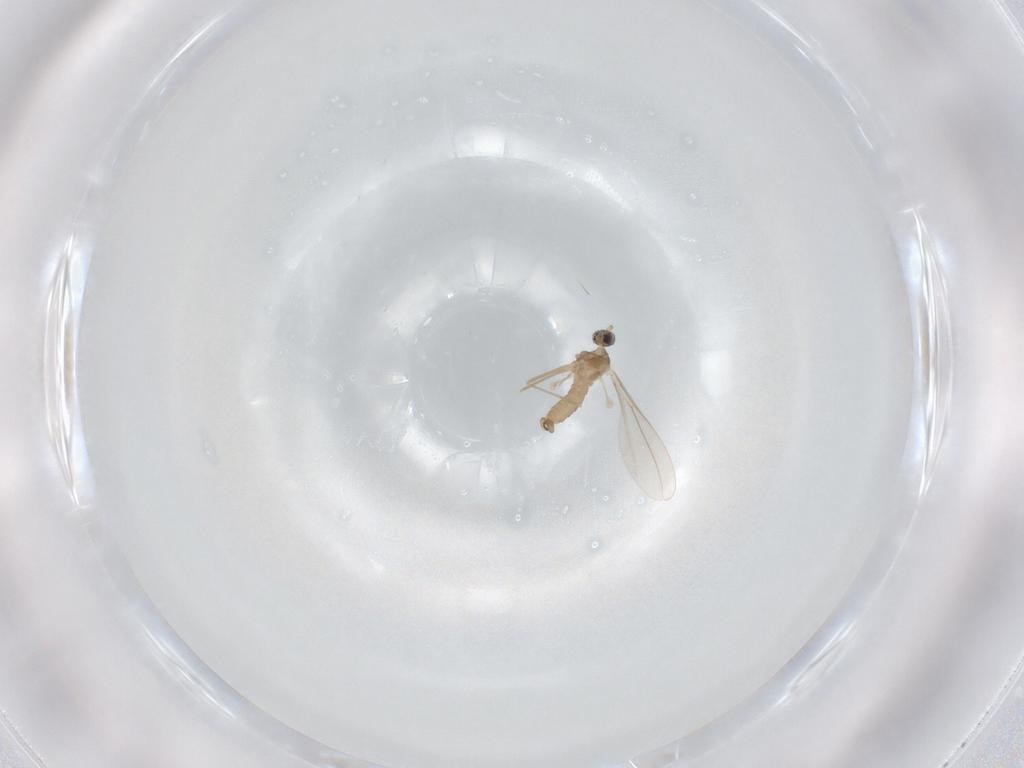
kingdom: Animalia
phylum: Arthropoda
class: Insecta
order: Diptera
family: Cecidomyiidae
